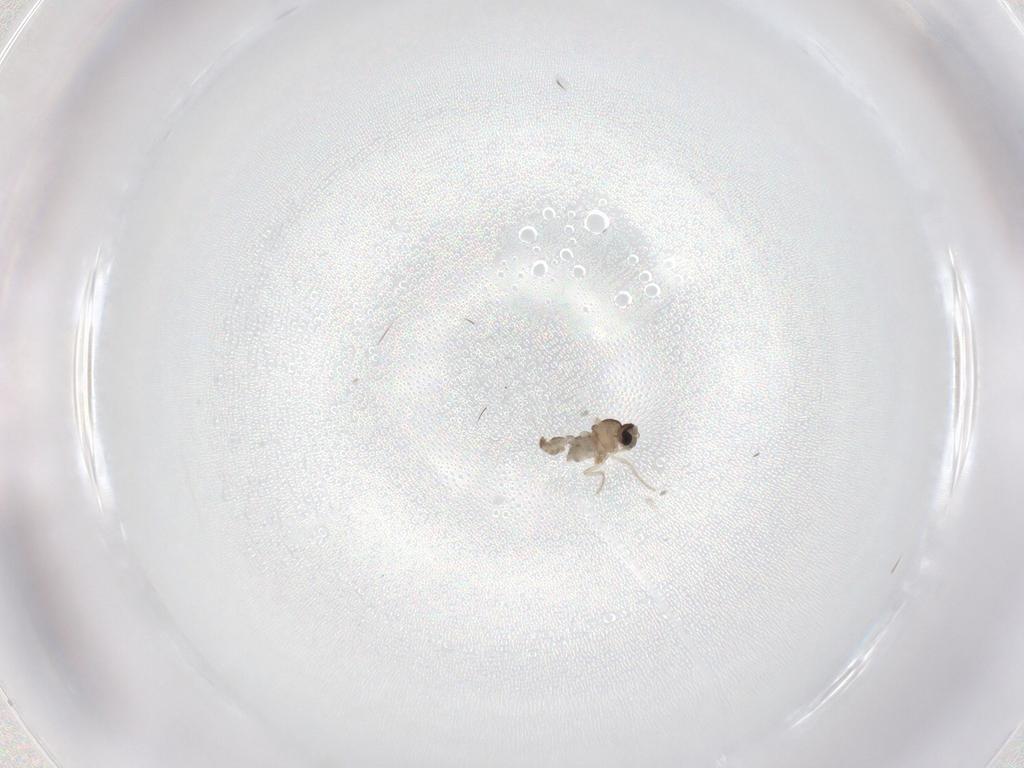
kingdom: Animalia
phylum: Arthropoda
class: Insecta
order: Diptera
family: Cecidomyiidae
